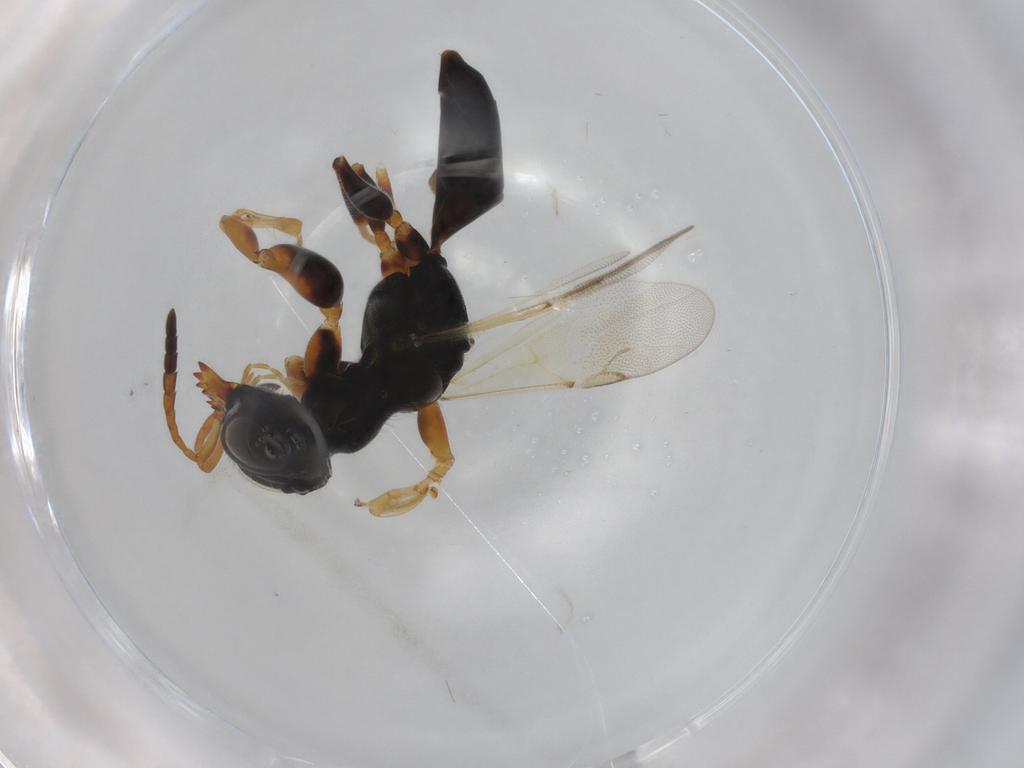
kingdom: Animalia
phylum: Arthropoda
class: Insecta
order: Hymenoptera
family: Dryinidae
